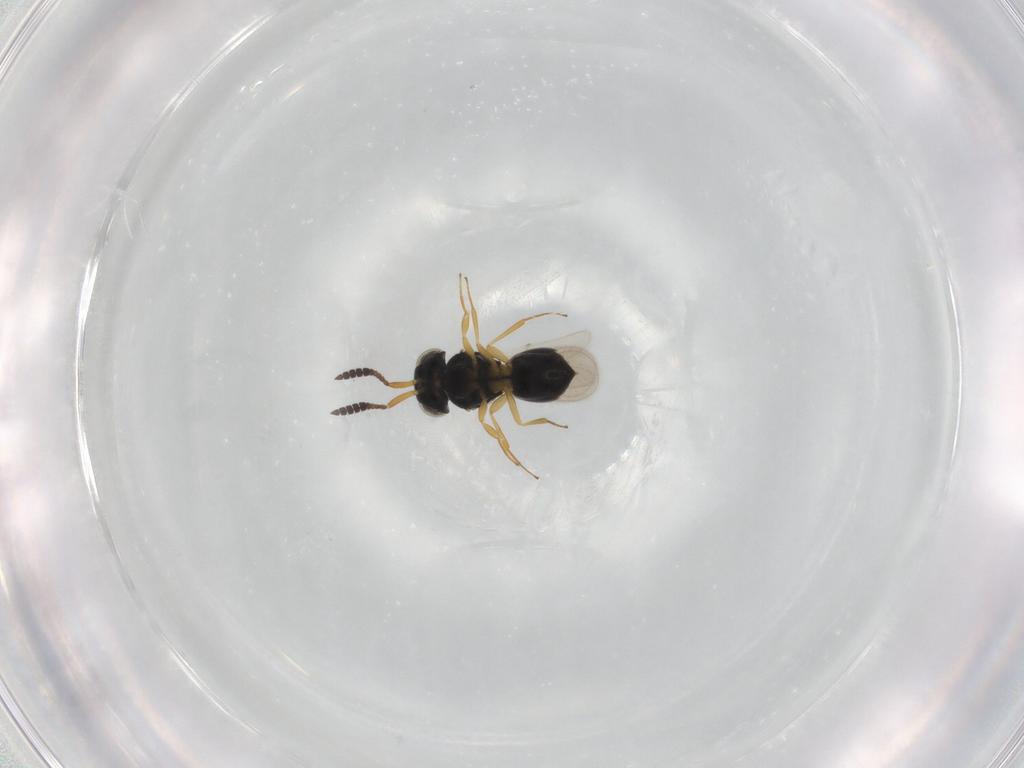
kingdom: Animalia
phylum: Arthropoda
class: Insecta
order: Hymenoptera
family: Scelionidae
